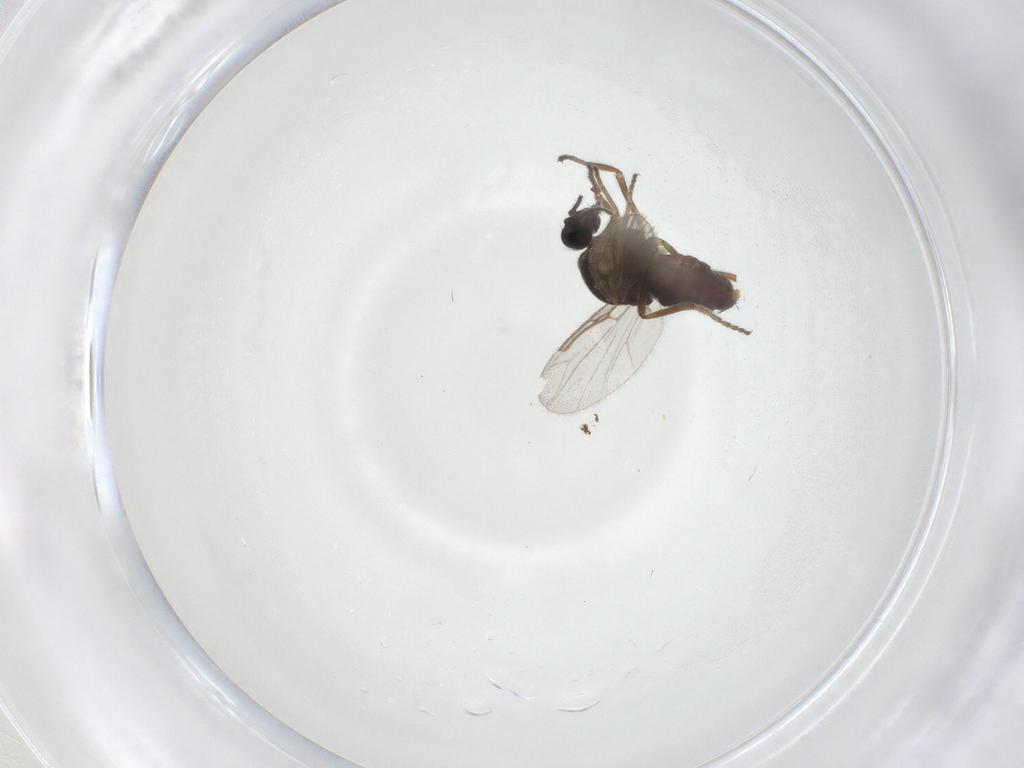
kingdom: Animalia
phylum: Arthropoda
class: Insecta
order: Diptera
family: Ceratopogonidae
